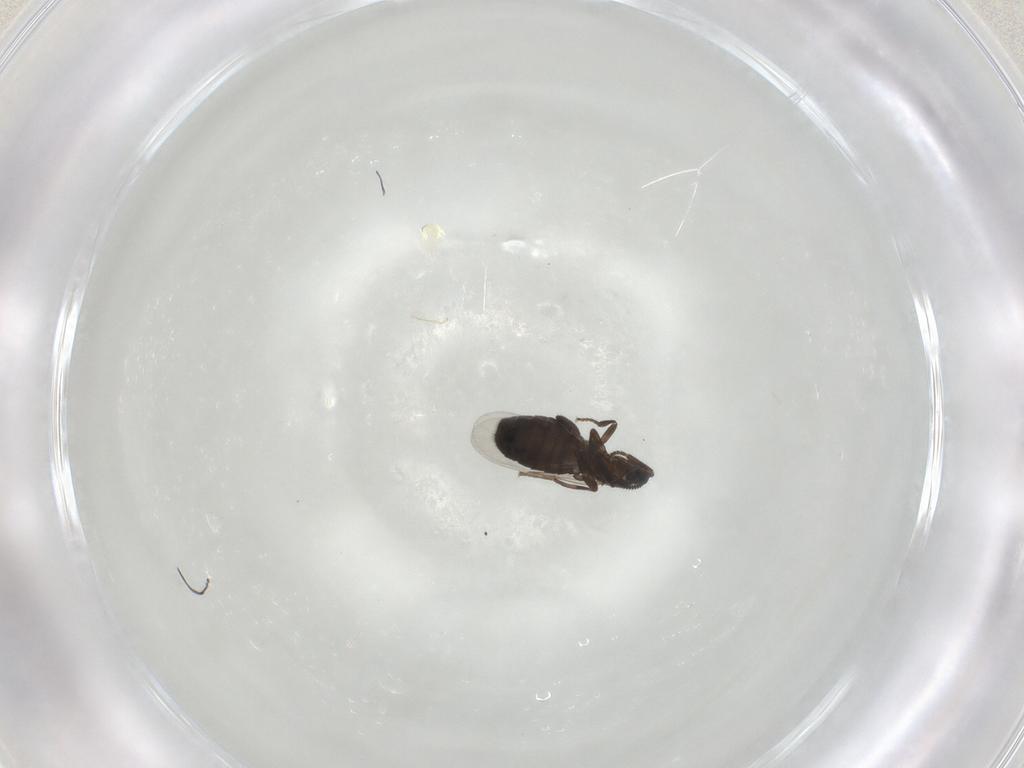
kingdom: Animalia
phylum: Arthropoda
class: Insecta
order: Diptera
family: Scatopsidae
